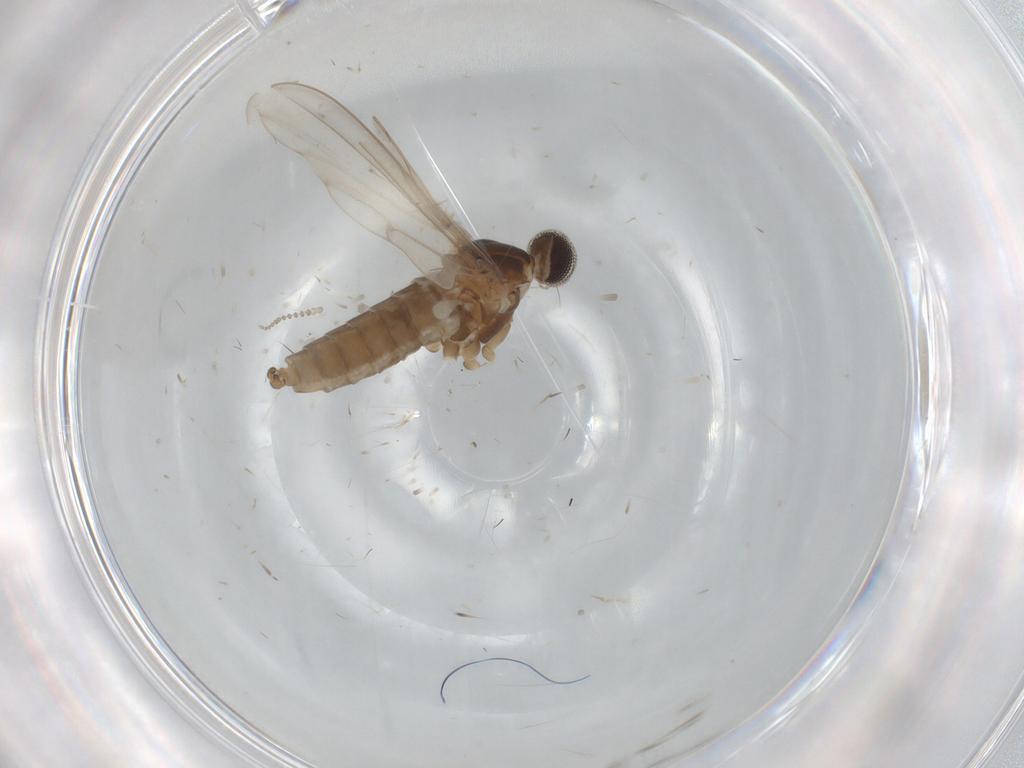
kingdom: Animalia
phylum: Arthropoda
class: Insecta
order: Diptera
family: Cecidomyiidae
